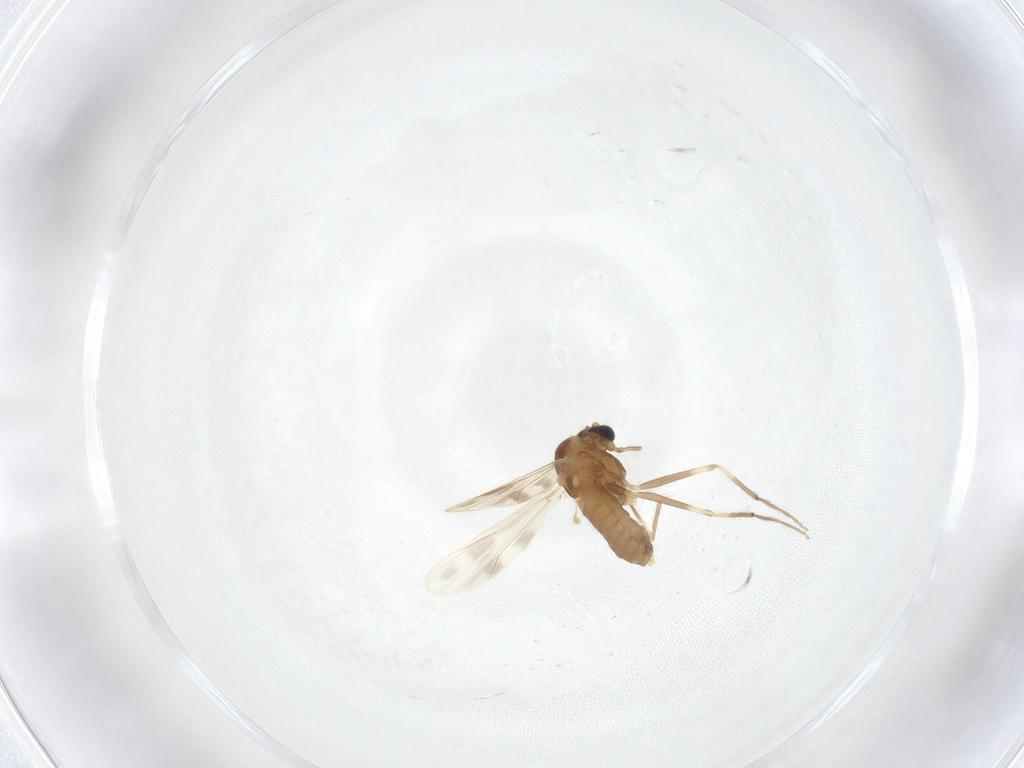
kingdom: Animalia
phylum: Arthropoda
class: Insecta
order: Diptera
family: Chironomidae
